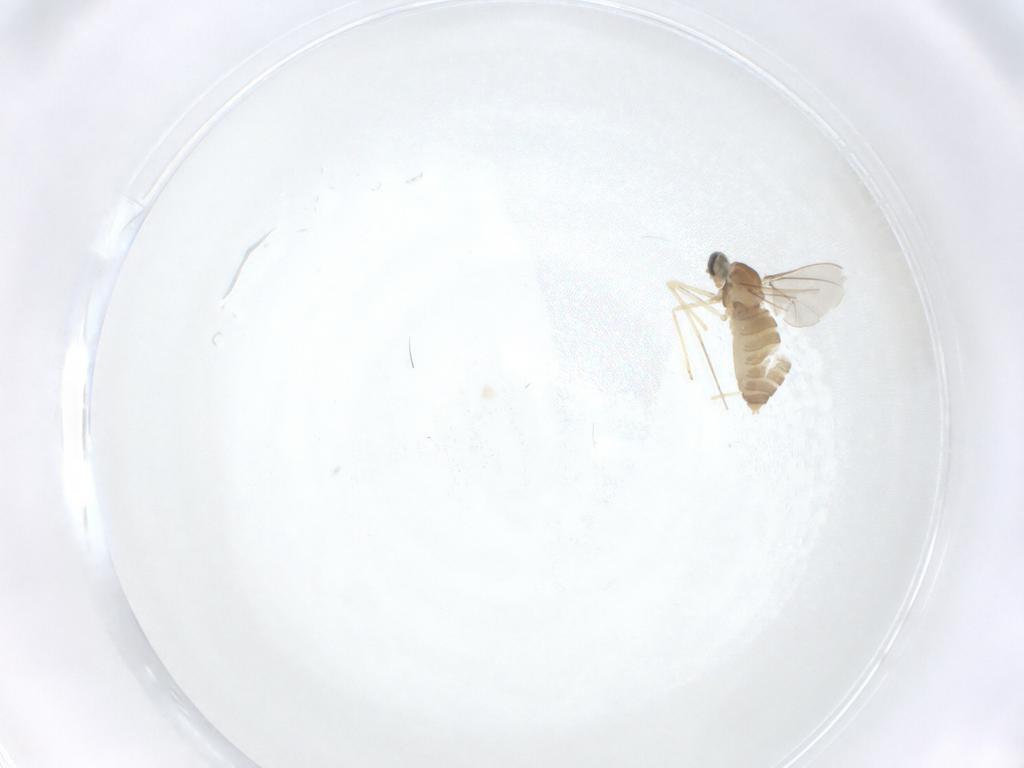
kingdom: Animalia
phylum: Arthropoda
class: Insecta
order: Diptera
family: Cecidomyiidae
